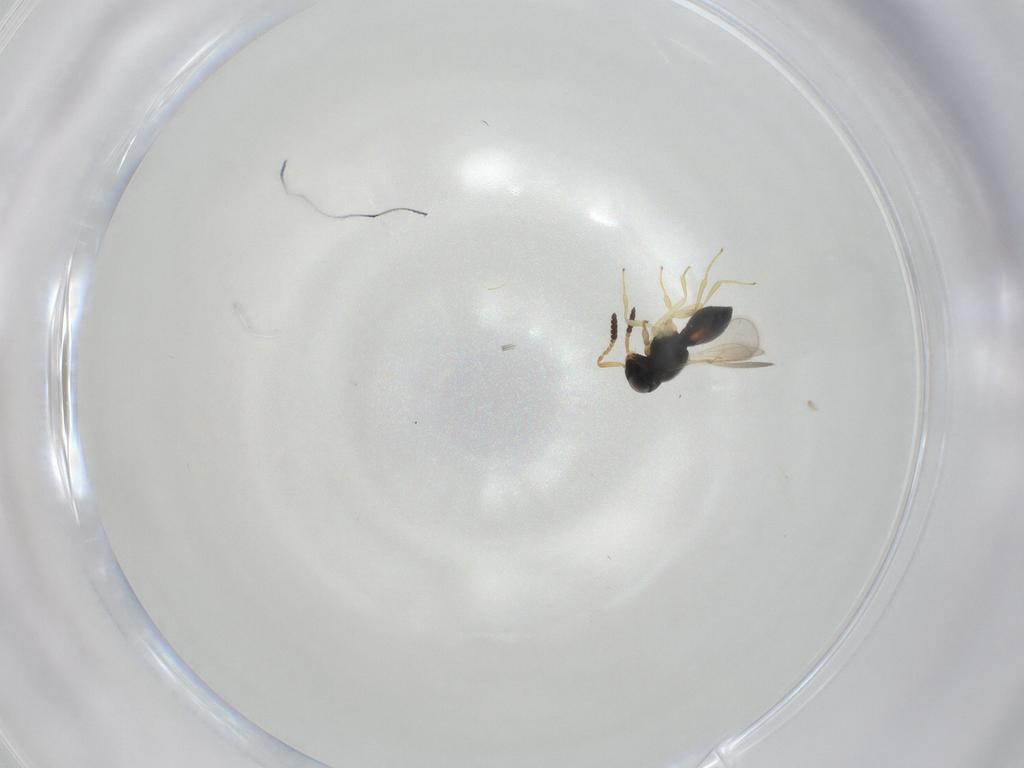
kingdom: Animalia
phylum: Arthropoda
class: Insecta
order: Hymenoptera
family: Scelionidae
